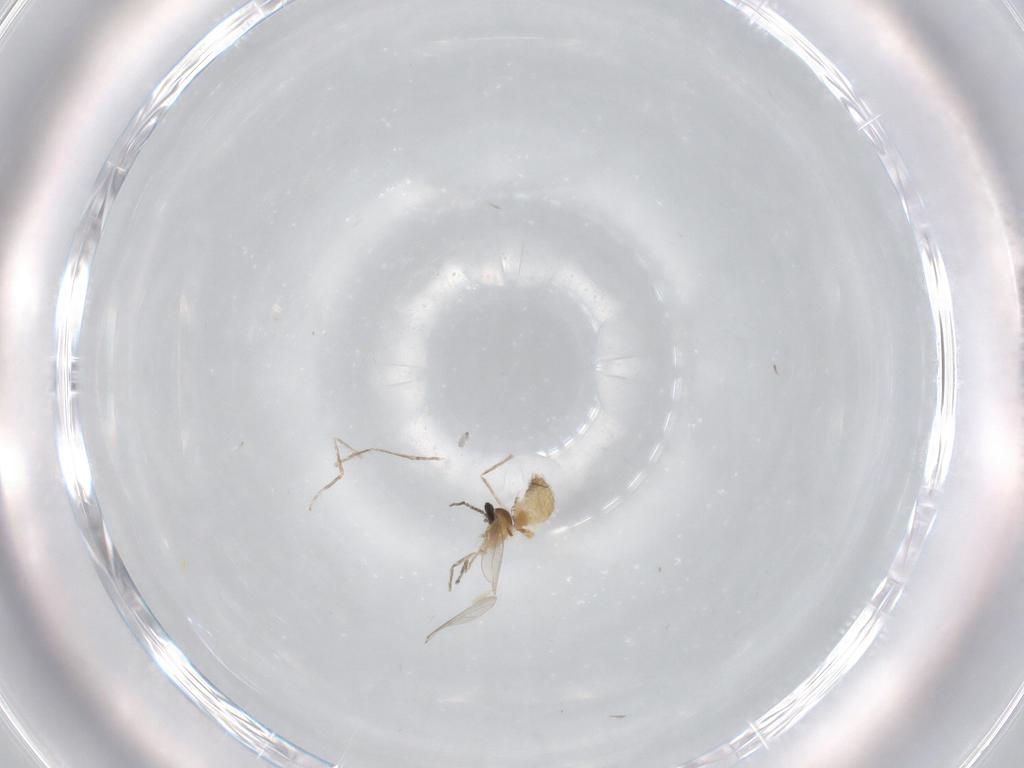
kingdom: Animalia
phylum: Arthropoda
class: Insecta
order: Diptera
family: Cecidomyiidae
